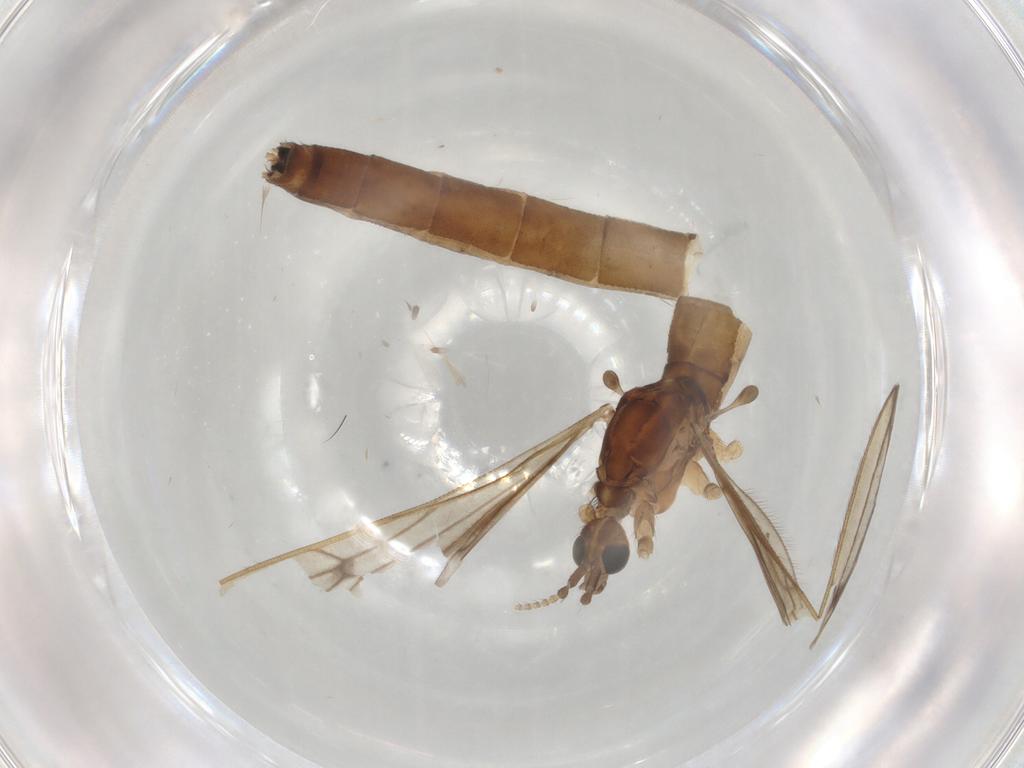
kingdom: Animalia
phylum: Arthropoda
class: Insecta
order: Diptera
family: Limoniidae
